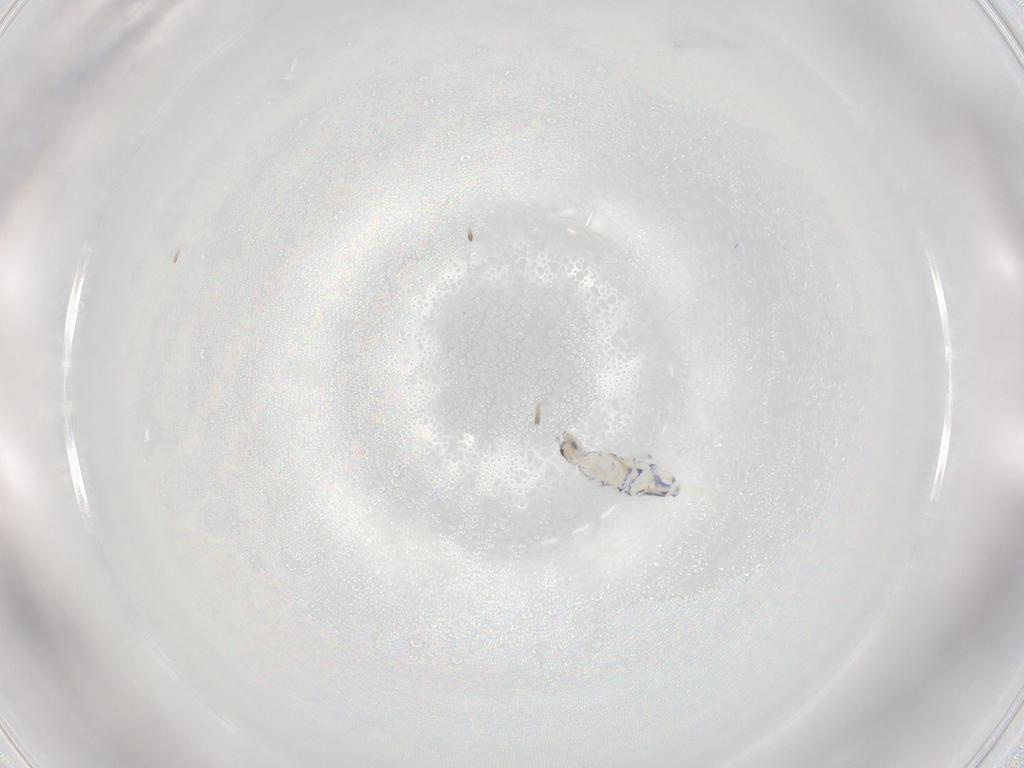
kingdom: Animalia
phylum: Arthropoda
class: Collembola
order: Entomobryomorpha
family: Entomobryidae
